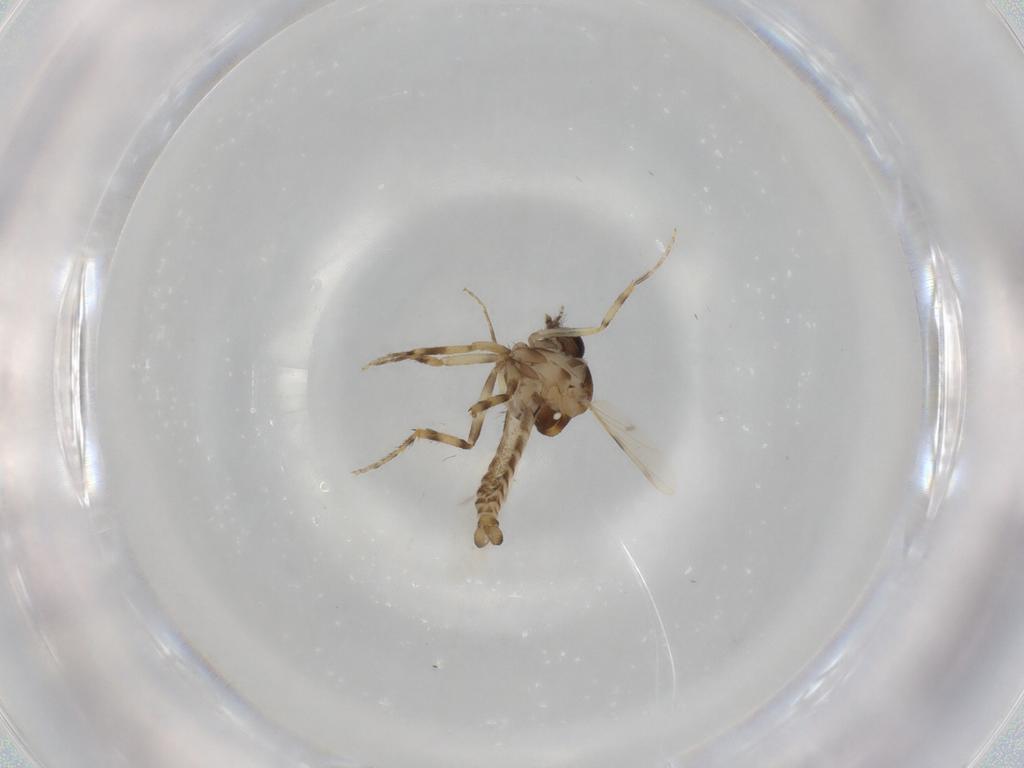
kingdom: Animalia
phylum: Arthropoda
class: Insecta
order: Diptera
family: Ceratopogonidae
